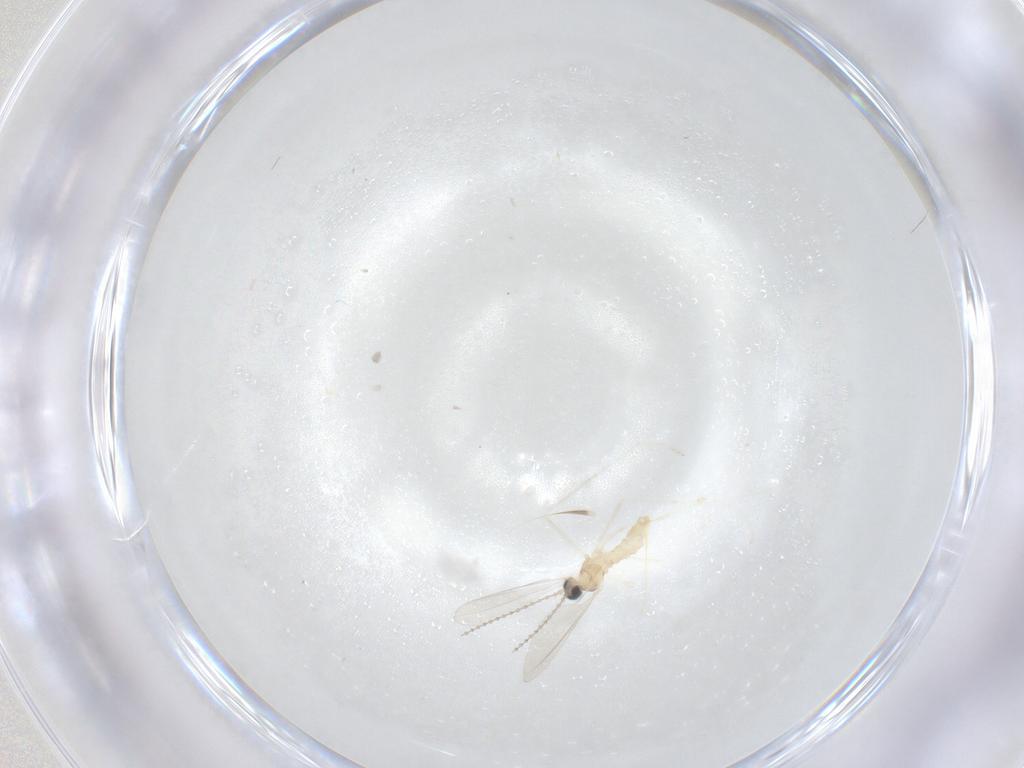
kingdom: Animalia
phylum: Arthropoda
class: Insecta
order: Diptera
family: Cecidomyiidae
